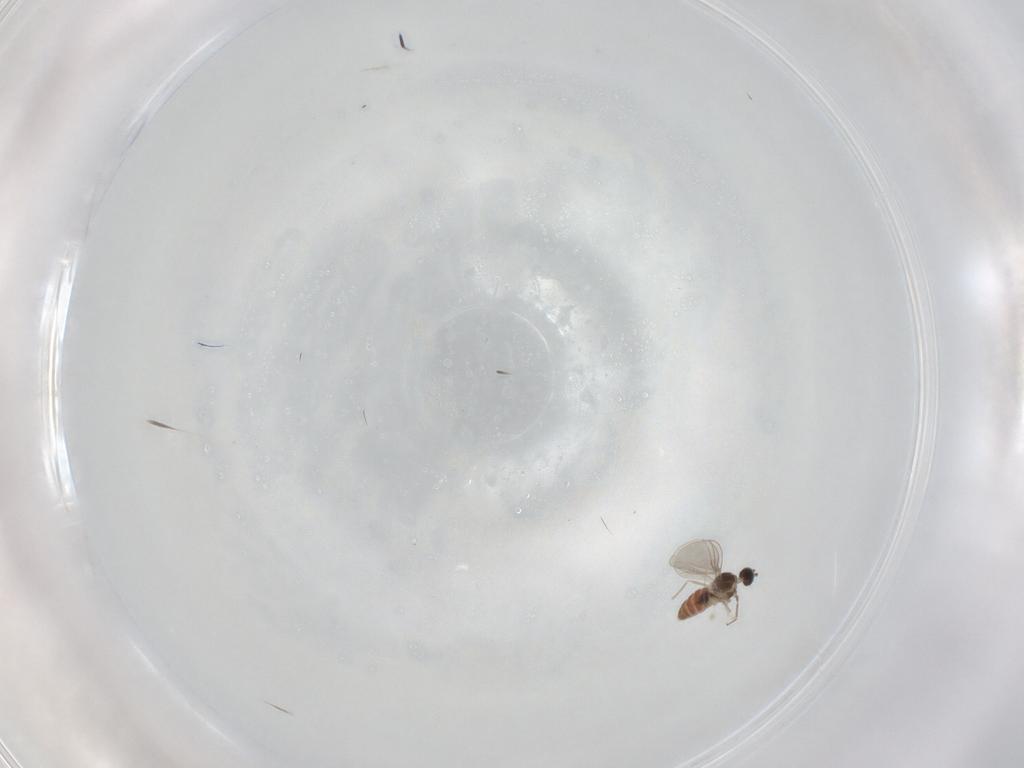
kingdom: Animalia
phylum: Arthropoda
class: Insecta
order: Diptera
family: Cecidomyiidae
